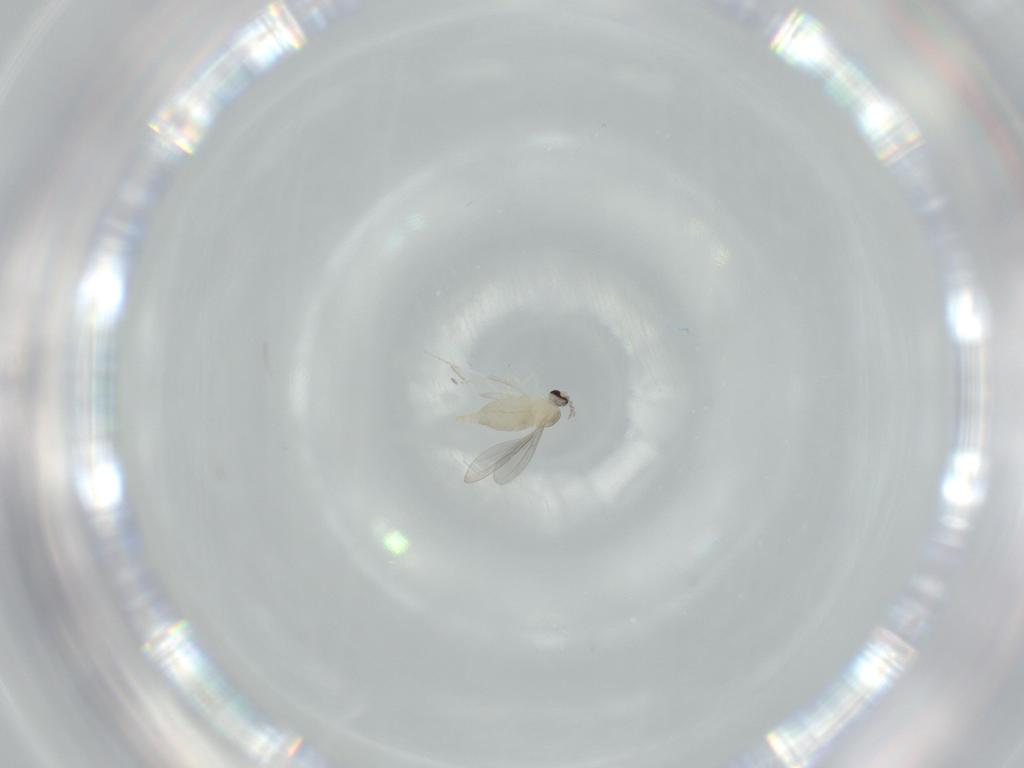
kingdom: Animalia
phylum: Arthropoda
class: Insecta
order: Diptera
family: Cecidomyiidae
